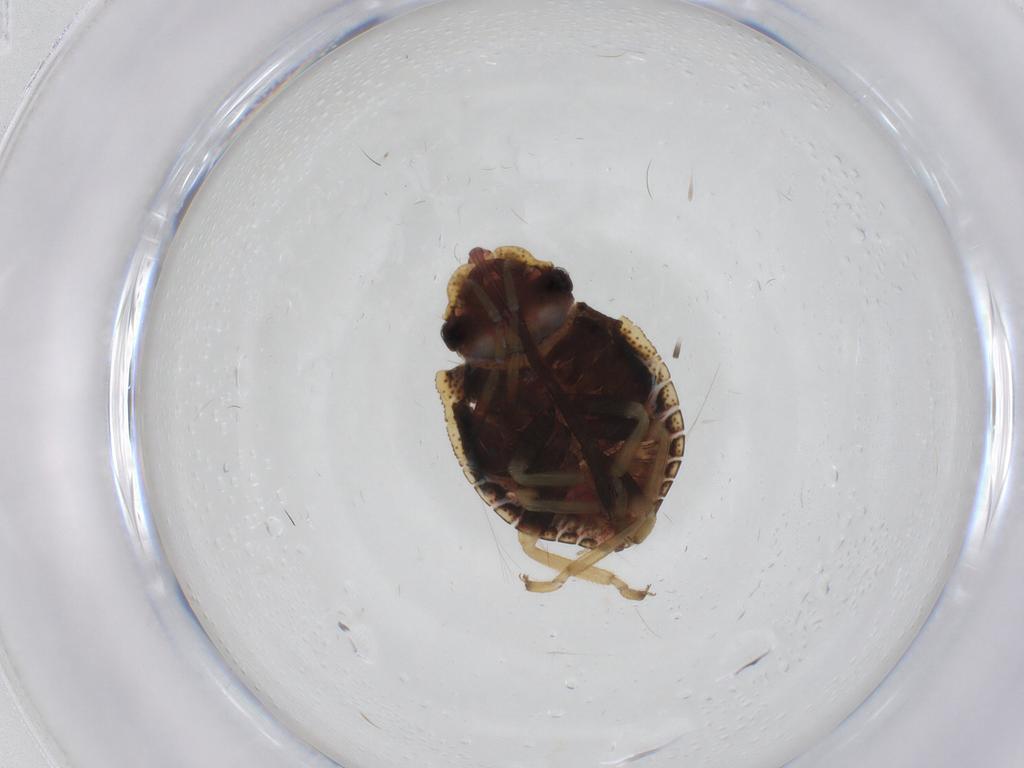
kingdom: Animalia
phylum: Arthropoda
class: Insecta
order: Hemiptera
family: Pentatomidae
